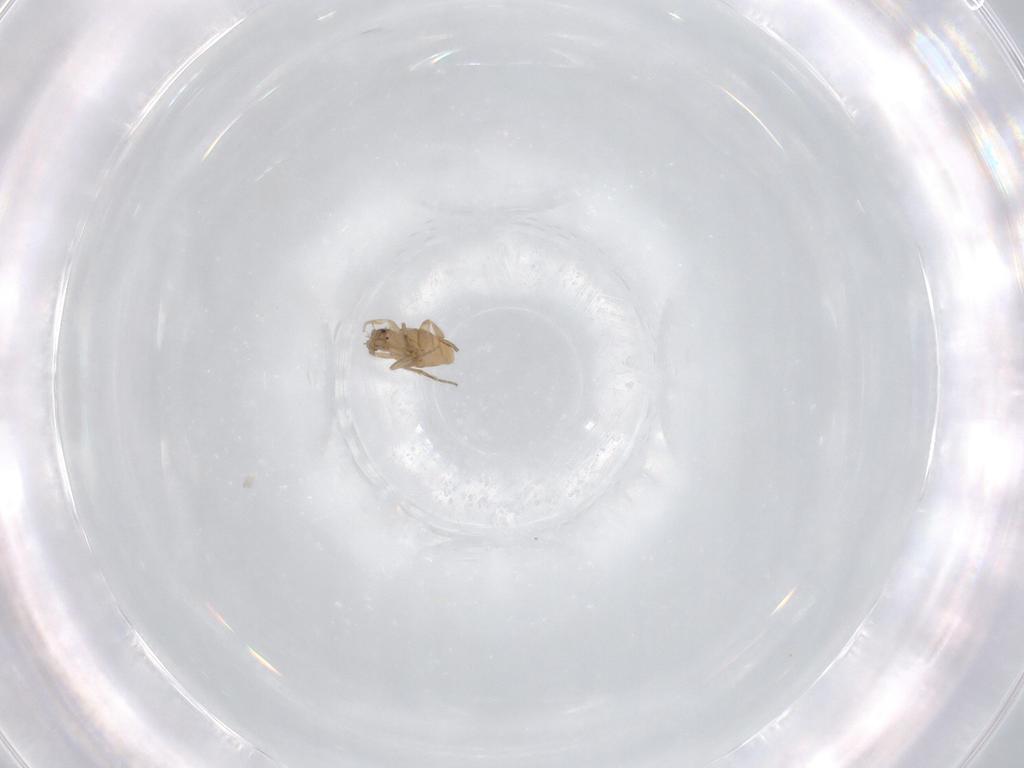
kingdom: Animalia
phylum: Arthropoda
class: Insecta
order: Diptera
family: Phoridae
